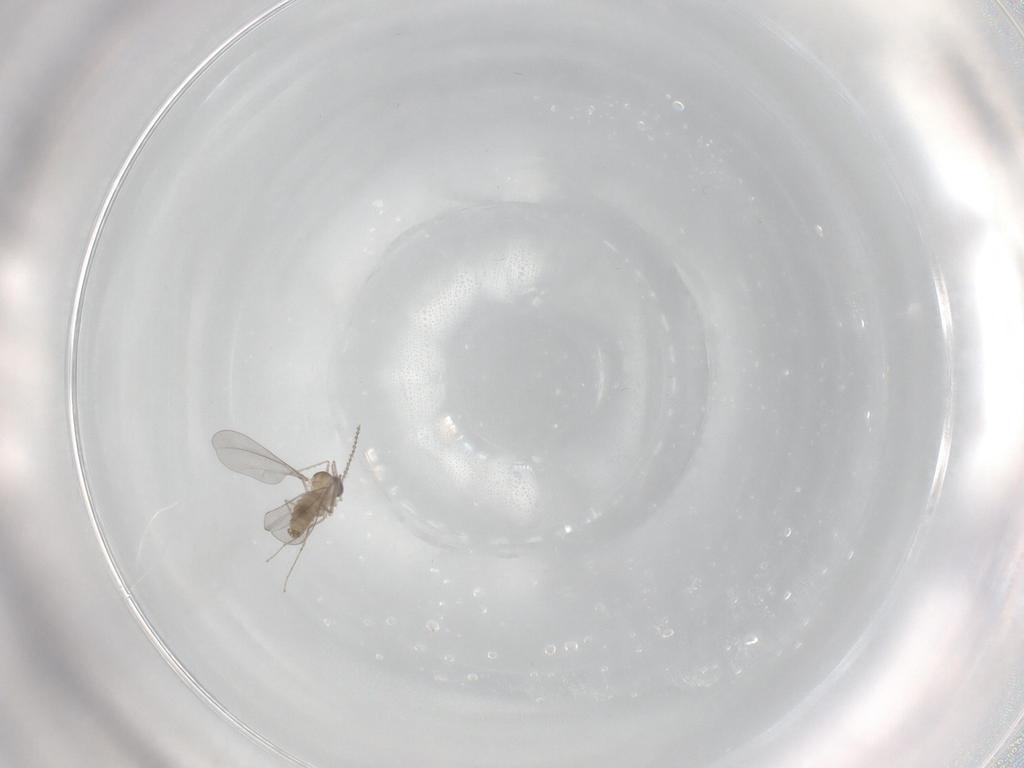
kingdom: Animalia
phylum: Arthropoda
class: Insecta
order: Diptera
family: Cecidomyiidae
